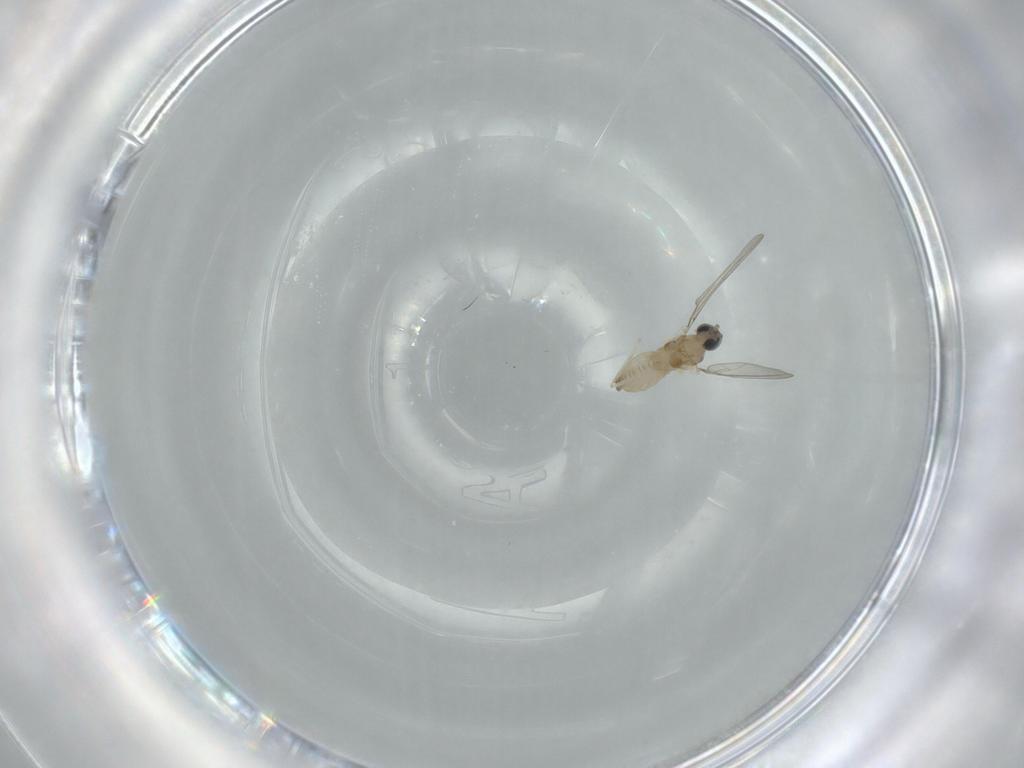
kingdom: Animalia
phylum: Arthropoda
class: Insecta
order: Diptera
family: Cecidomyiidae
